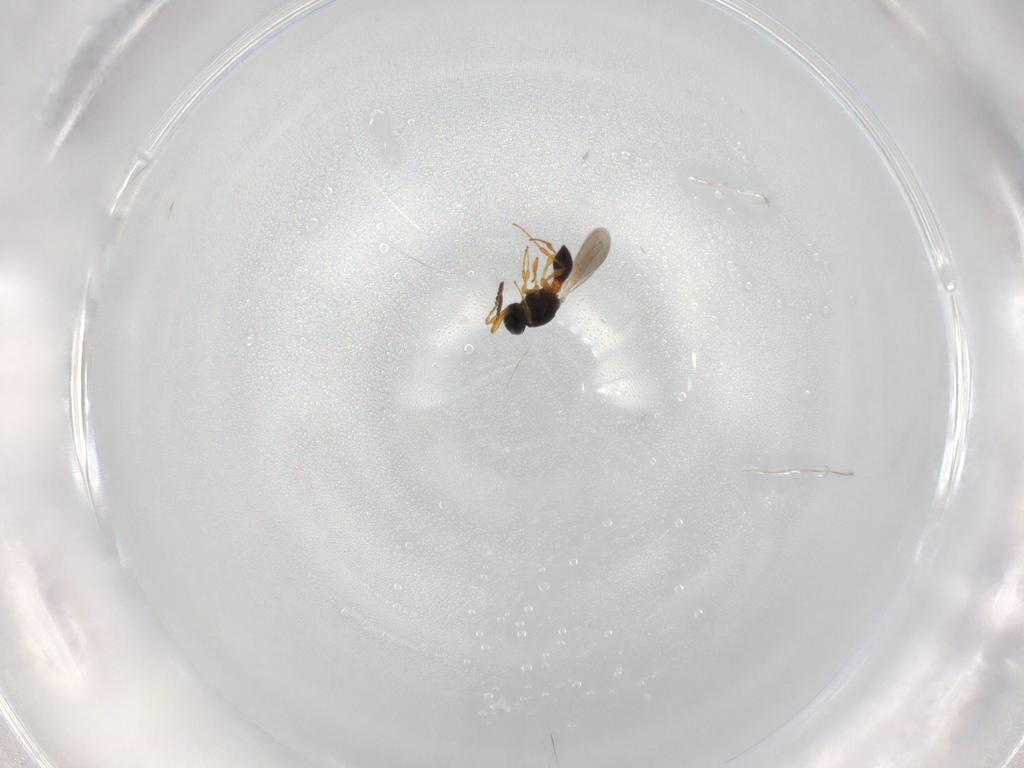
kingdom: Animalia
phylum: Arthropoda
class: Insecta
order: Hymenoptera
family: Platygastridae
